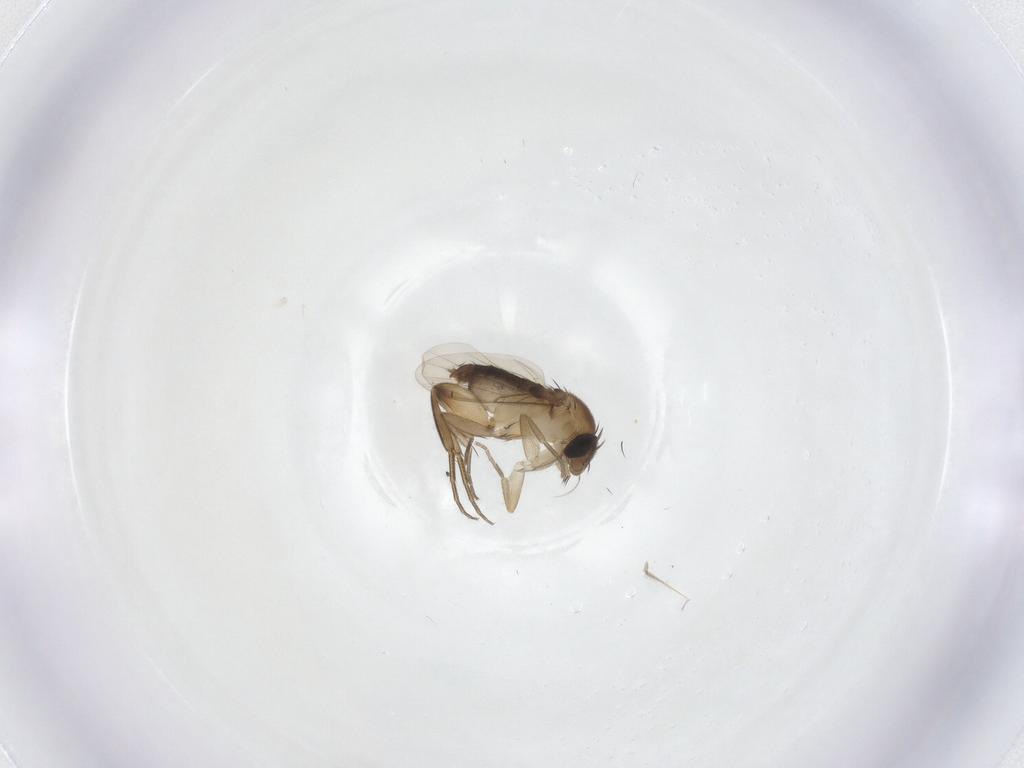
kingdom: Animalia
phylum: Arthropoda
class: Insecta
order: Diptera
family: Phoridae
